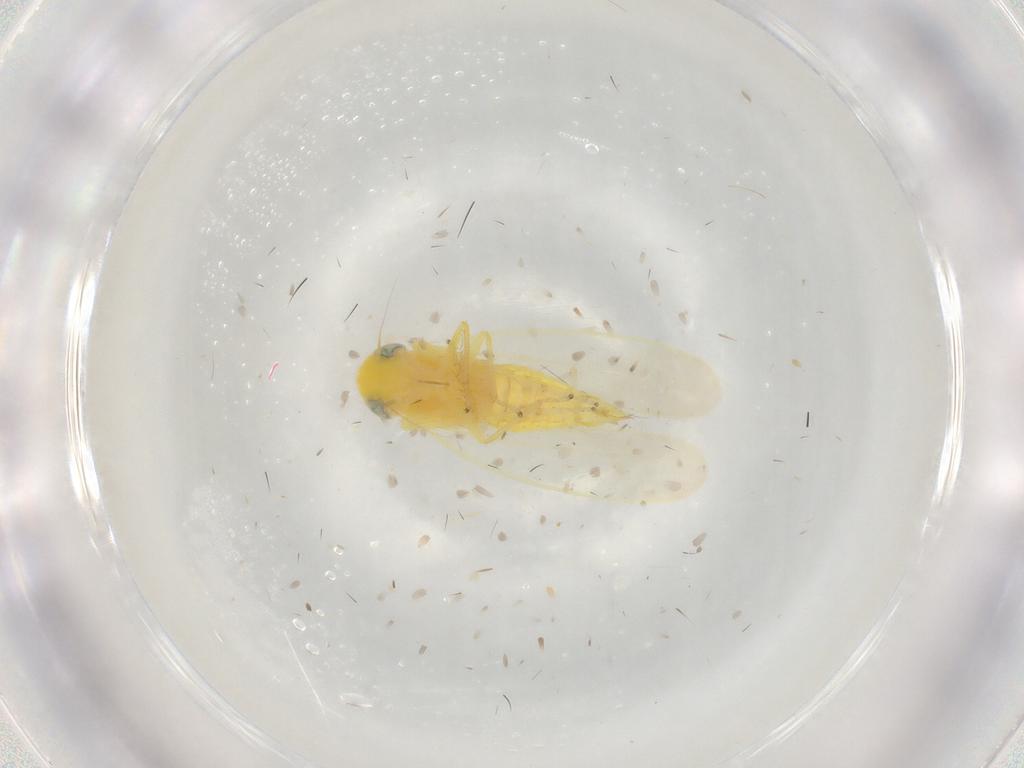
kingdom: Animalia
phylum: Arthropoda
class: Insecta
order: Hemiptera
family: Cicadellidae
